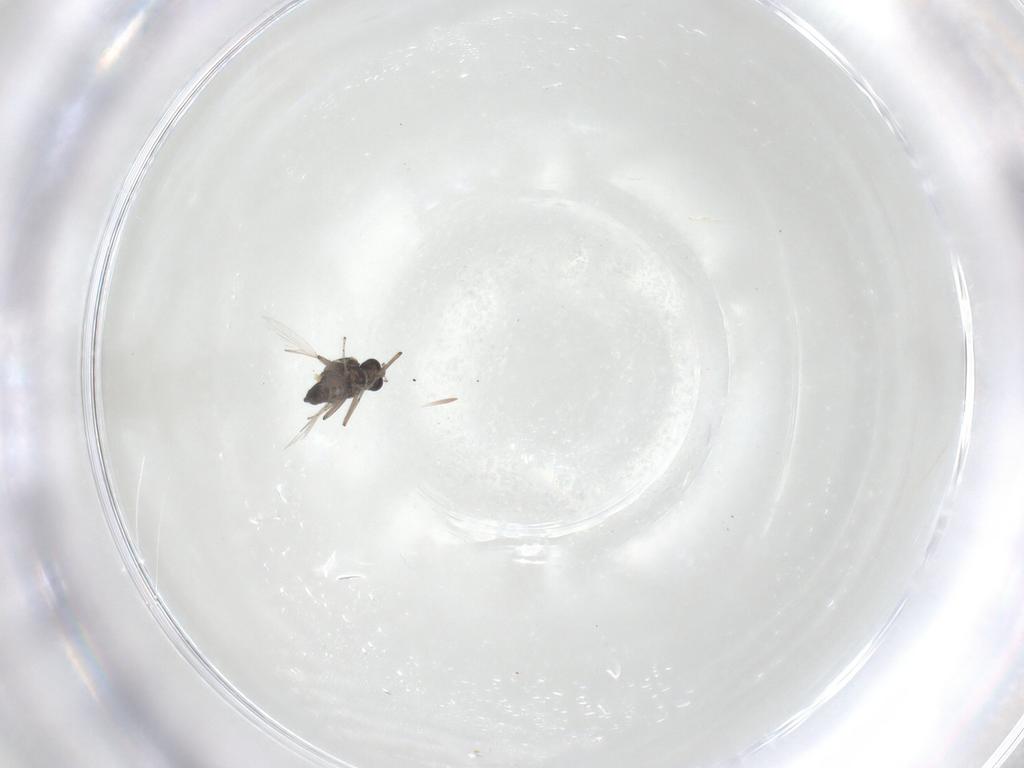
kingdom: Animalia
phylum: Arthropoda
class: Insecta
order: Diptera
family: Ceratopogonidae
